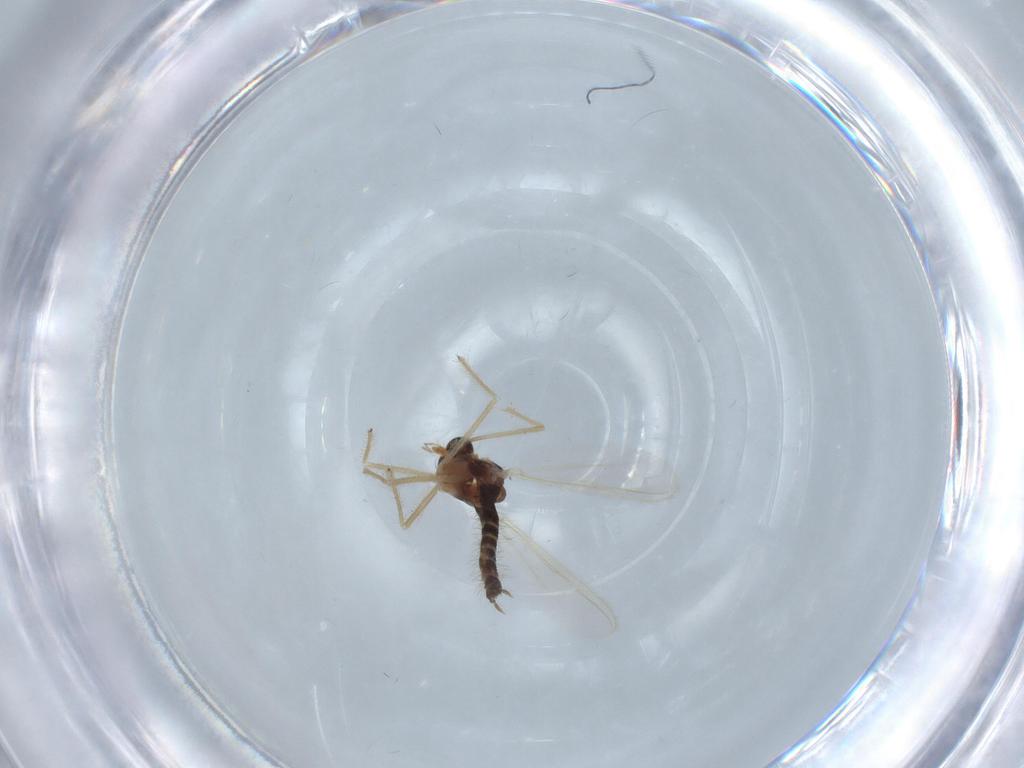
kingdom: Animalia
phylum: Arthropoda
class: Insecta
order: Diptera
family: Chironomidae
